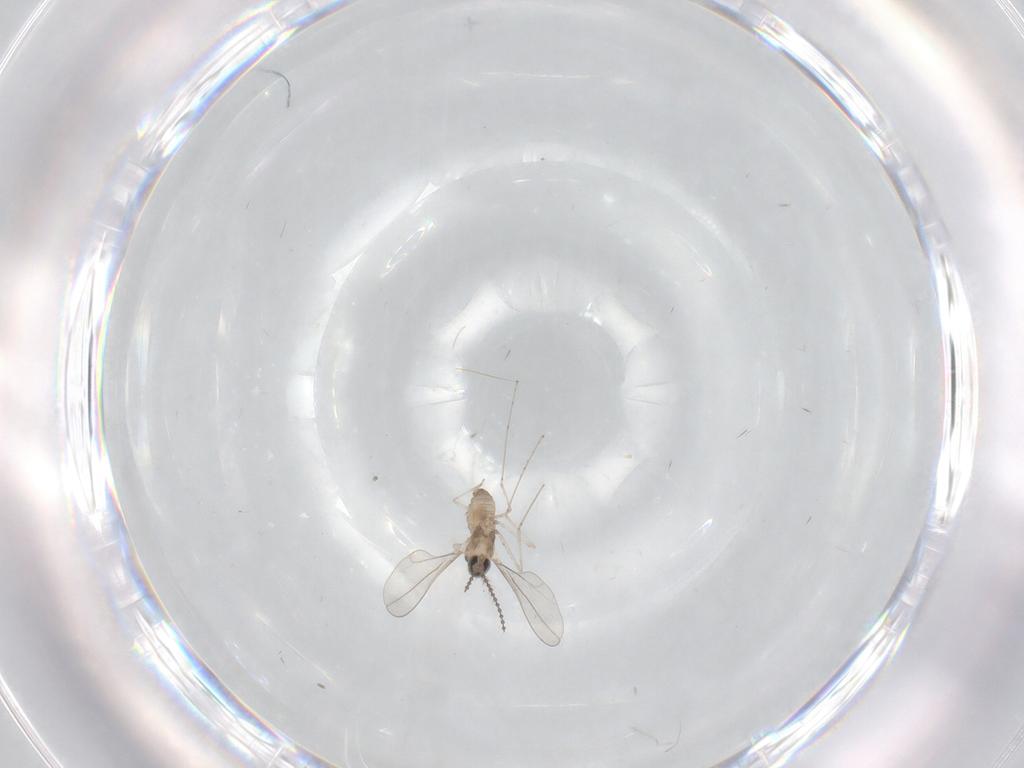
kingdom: Animalia
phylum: Arthropoda
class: Insecta
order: Diptera
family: Cecidomyiidae
